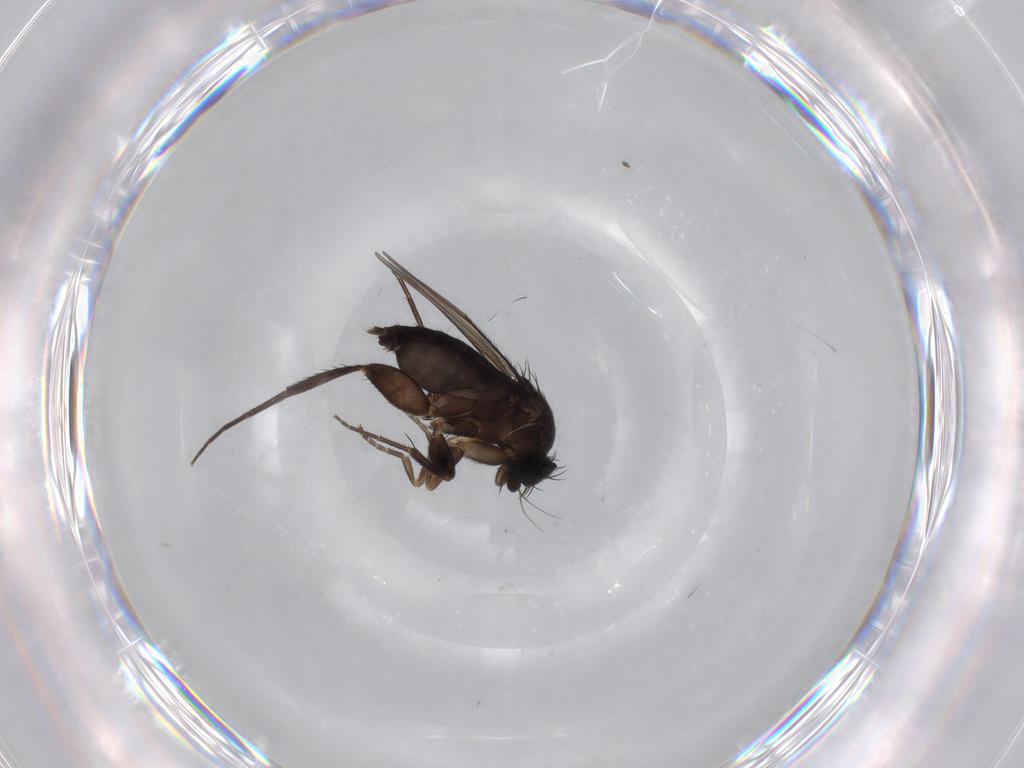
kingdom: Animalia
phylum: Arthropoda
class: Insecta
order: Diptera
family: Phoridae
